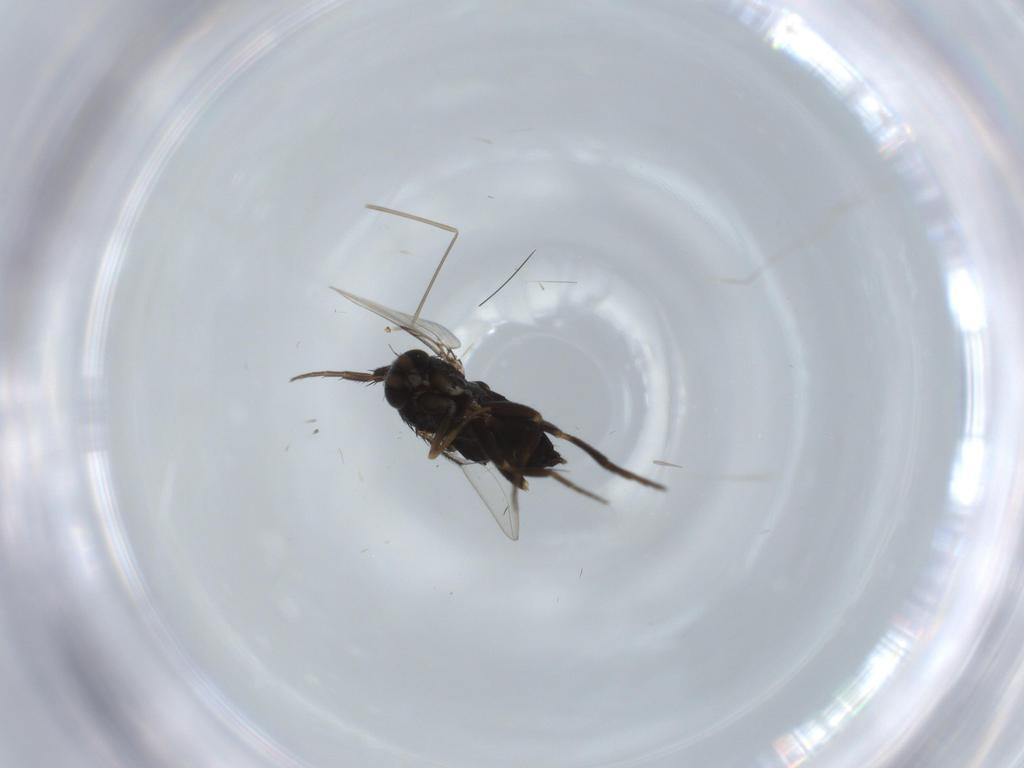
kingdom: Animalia
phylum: Arthropoda
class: Insecta
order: Diptera
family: Phoridae
